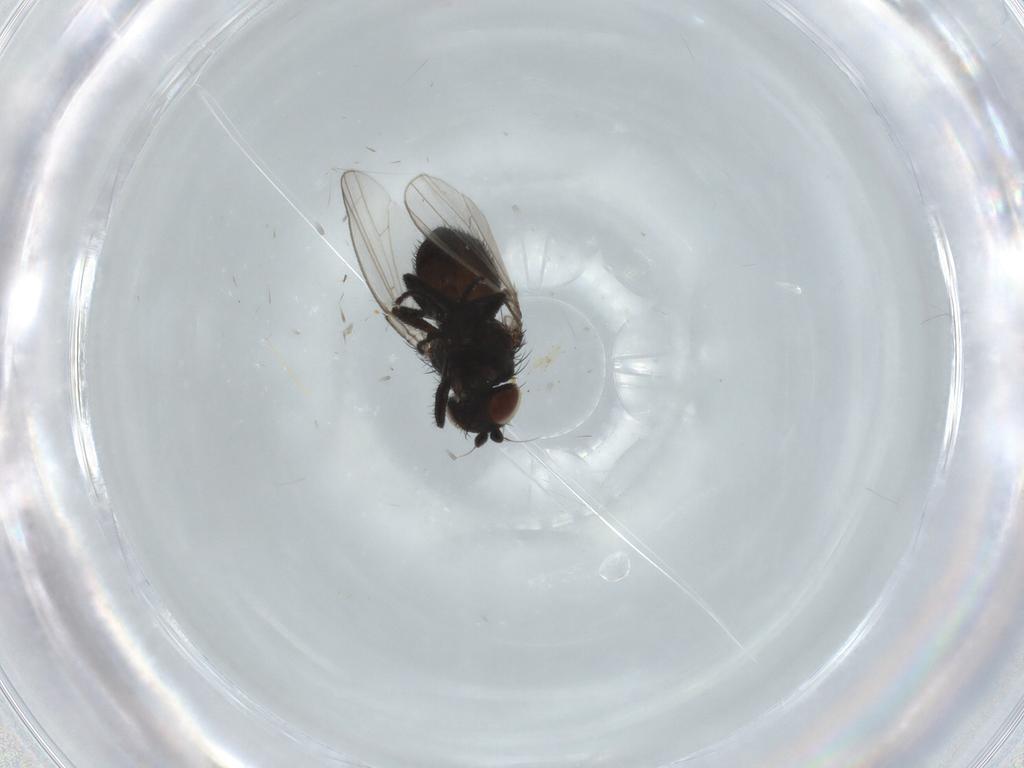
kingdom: Animalia
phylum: Arthropoda
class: Insecta
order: Diptera
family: Milichiidae
